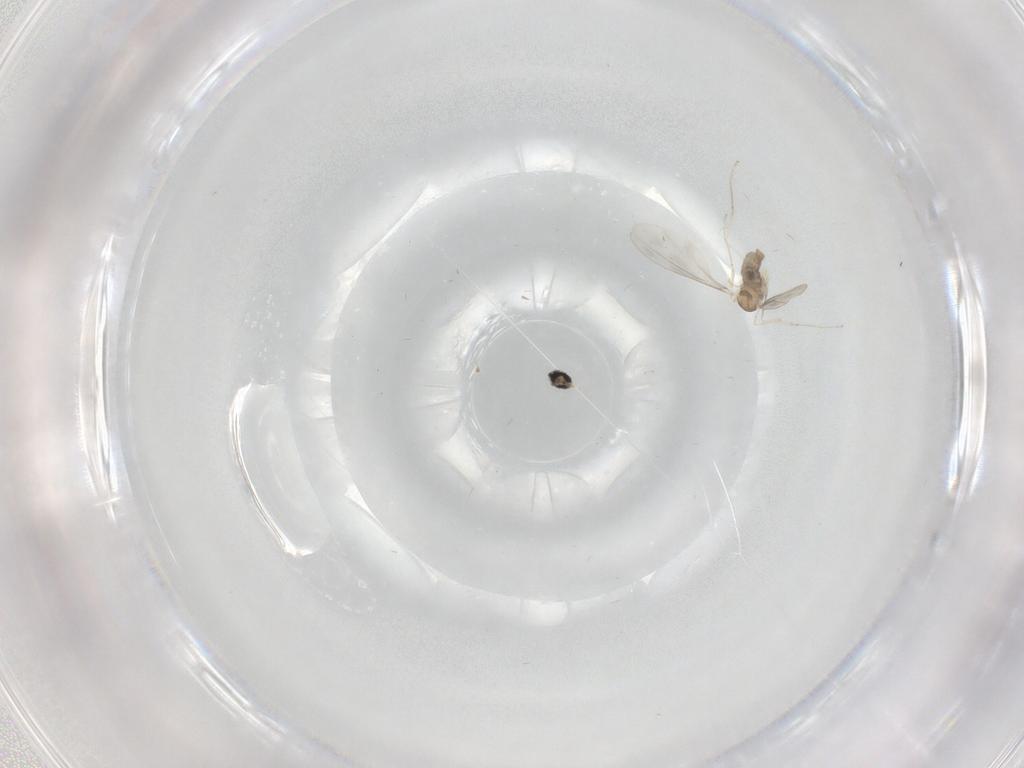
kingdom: Animalia
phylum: Arthropoda
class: Insecta
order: Diptera
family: Cecidomyiidae
